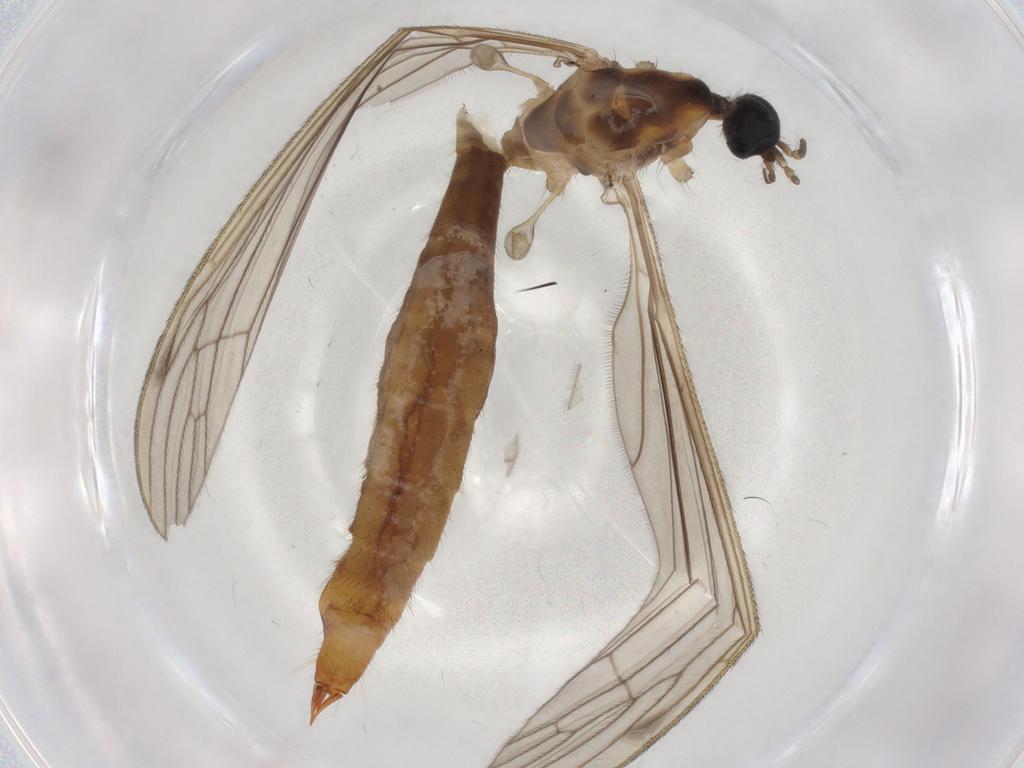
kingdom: Animalia
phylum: Arthropoda
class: Insecta
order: Diptera
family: Limoniidae
